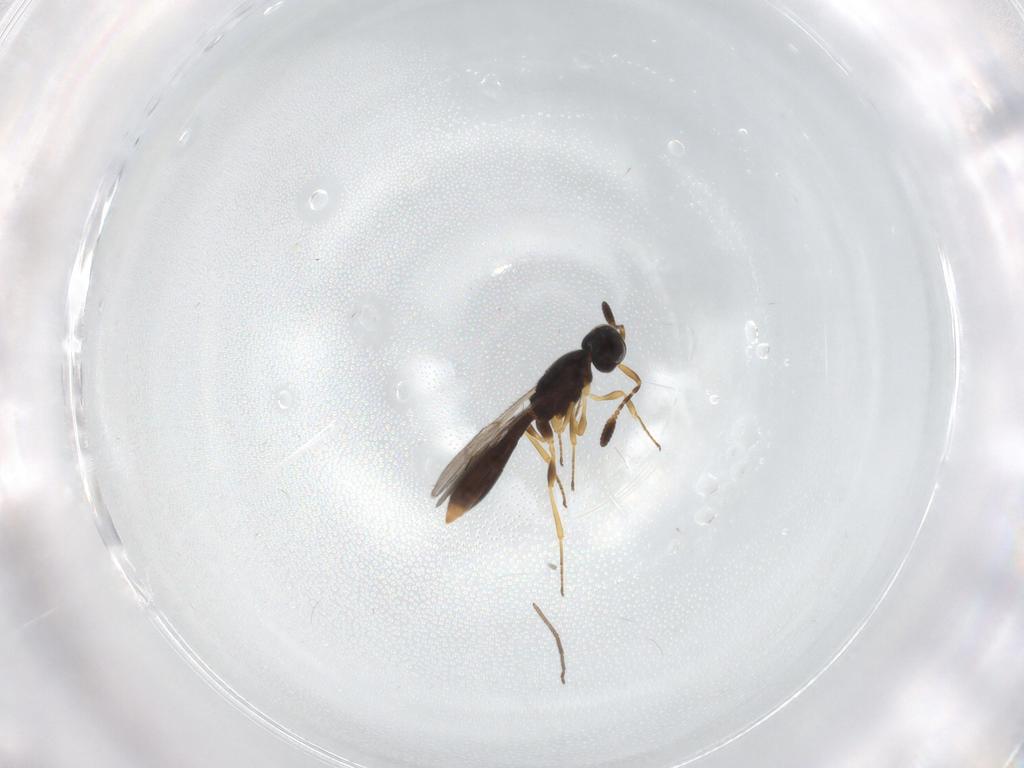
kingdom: Animalia
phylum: Arthropoda
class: Insecta
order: Hymenoptera
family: Scelionidae
